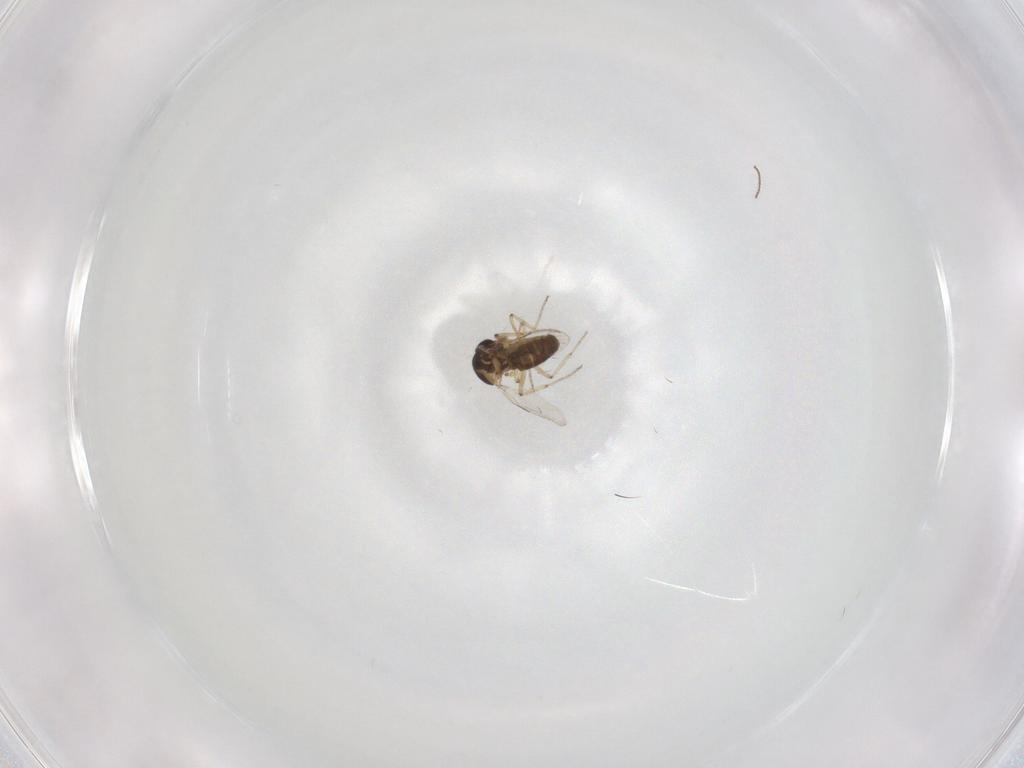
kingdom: Animalia
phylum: Arthropoda
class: Insecta
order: Diptera
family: Ceratopogonidae
